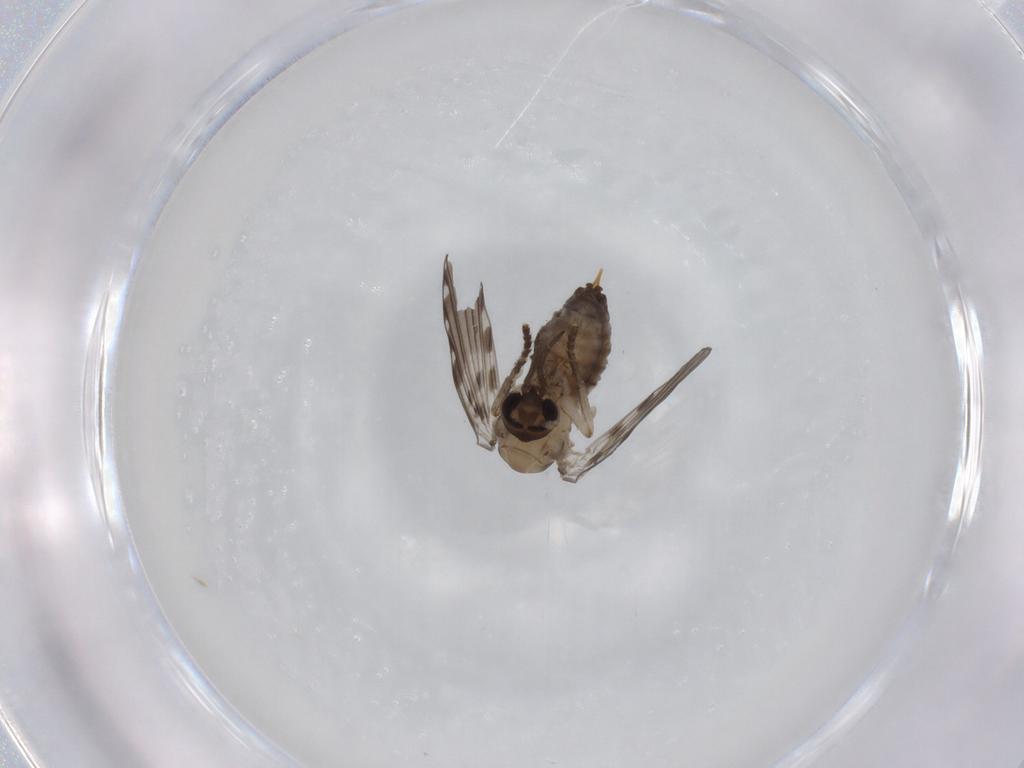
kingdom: Animalia
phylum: Arthropoda
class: Insecta
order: Diptera
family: Psychodidae
